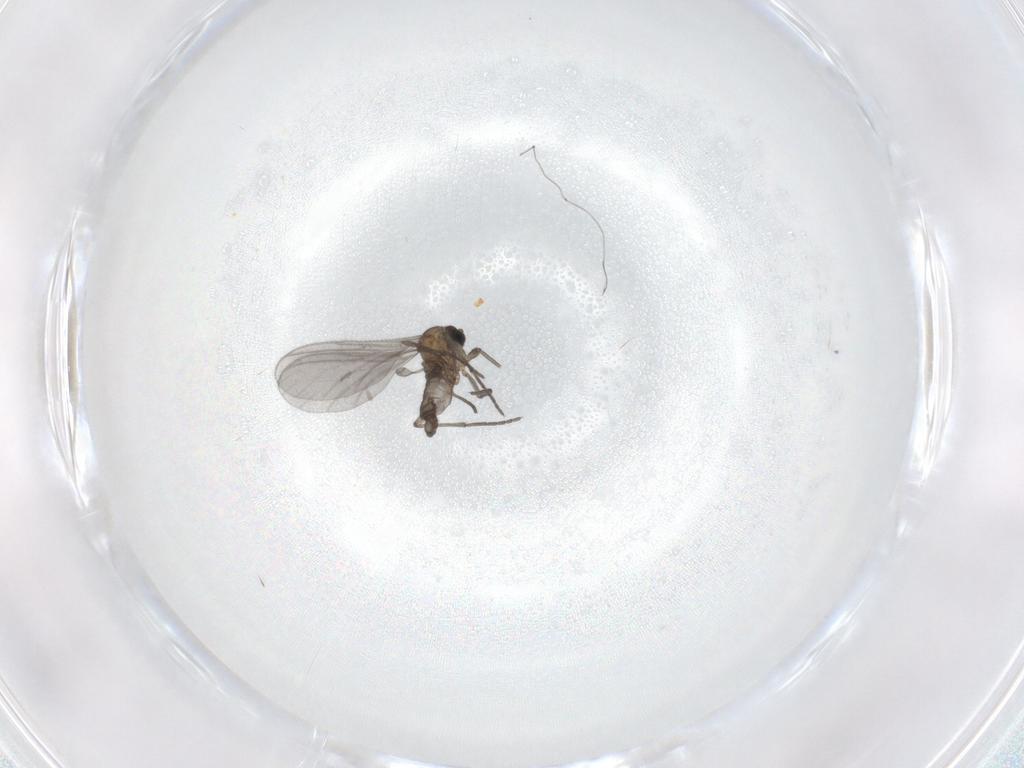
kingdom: Animalia
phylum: Arthropoda
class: Insecta
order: Diptera
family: Sciaridae
